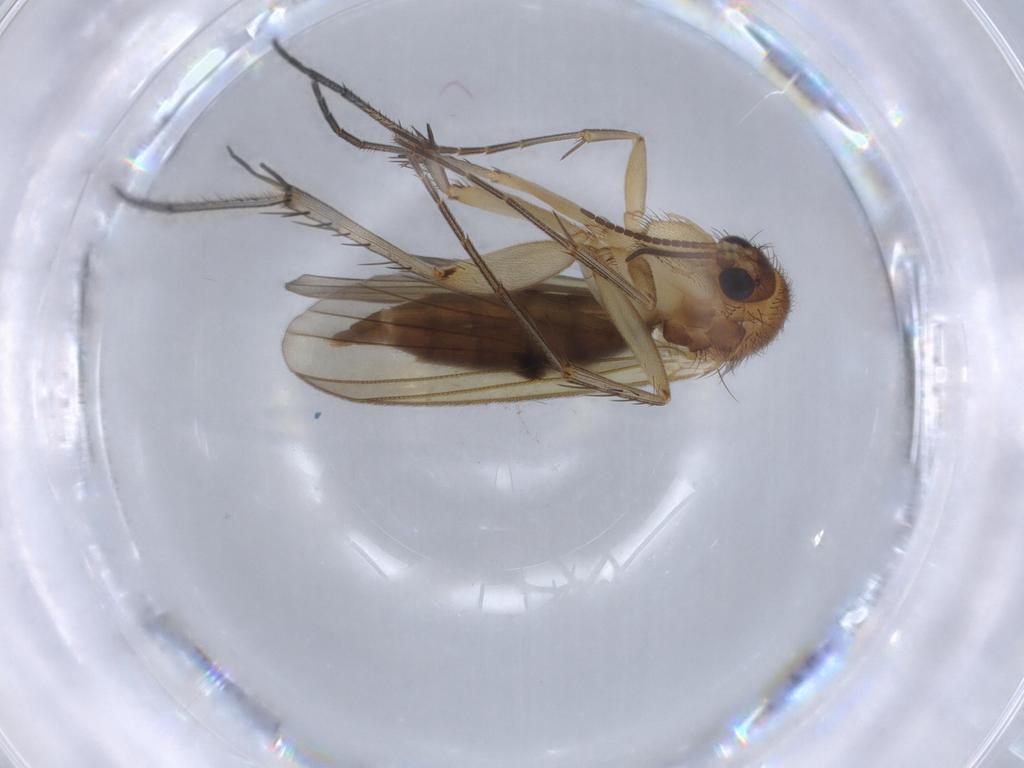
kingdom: Animalia
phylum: Arthropoda
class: Insecta
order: Diptera
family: Mycetophilidae
